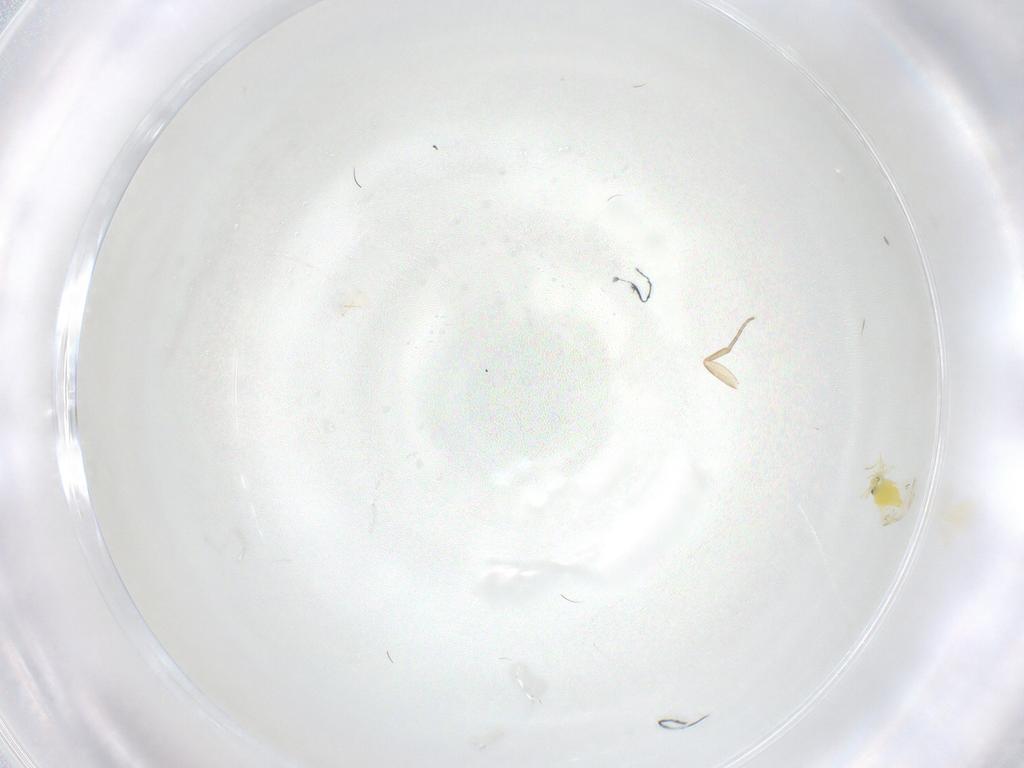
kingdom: Animalia
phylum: Arthropoda
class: Insecta
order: Hemiptera
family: Aleyrodidae
